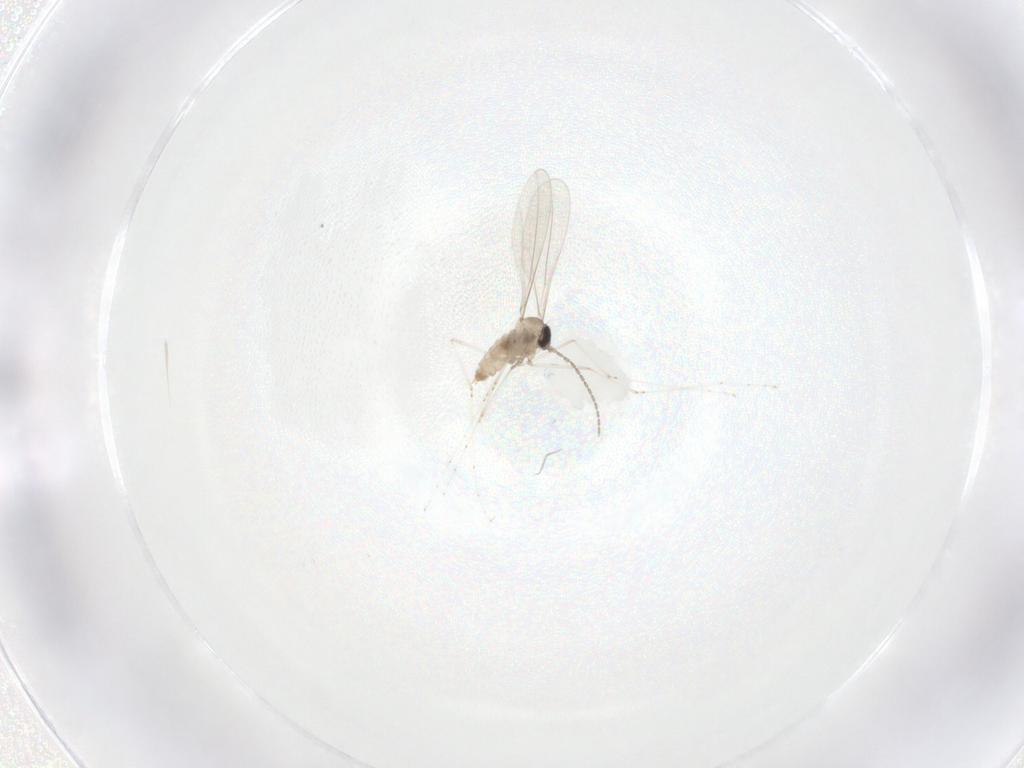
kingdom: Animalia
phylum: Arthropoda
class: Insecta
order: Diptera
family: Cecidomyiidae
